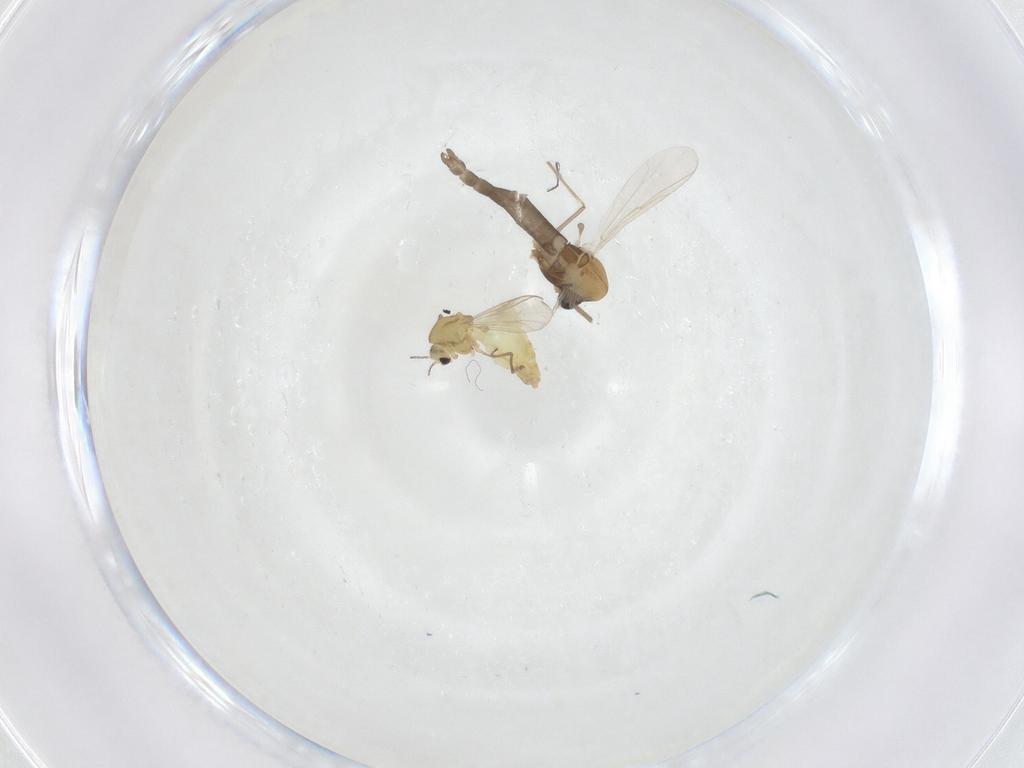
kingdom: Animalia
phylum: Arthropoda
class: Insecta
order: Diptera
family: Chironomidae
